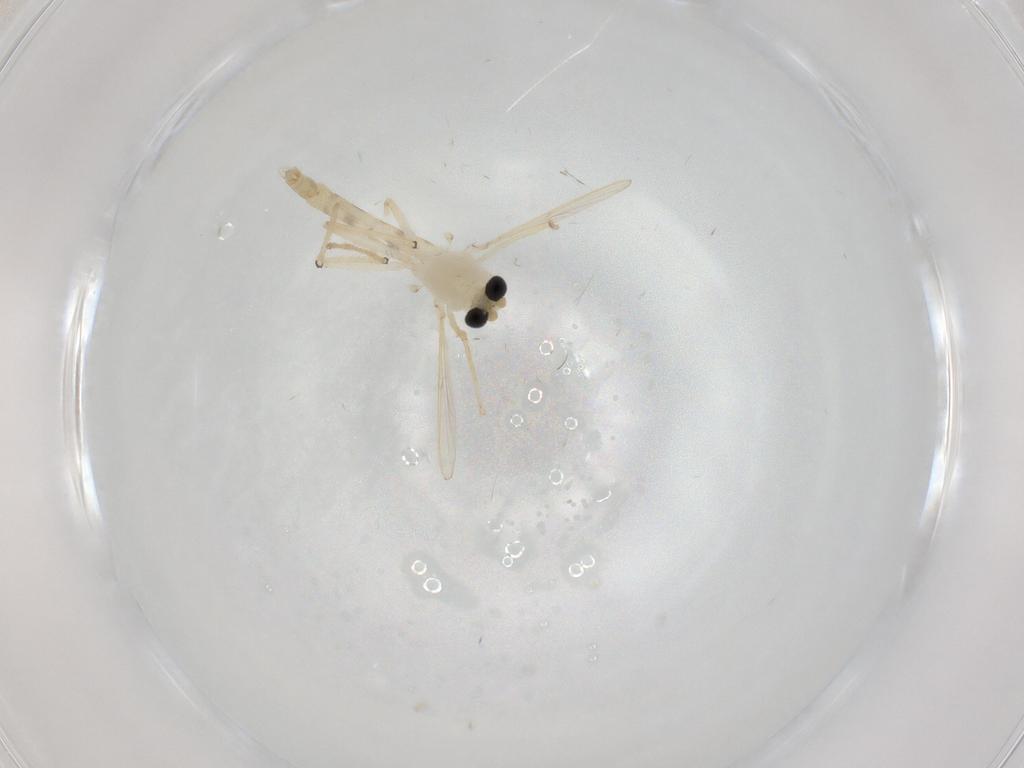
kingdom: Animalia
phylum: Arthropoda
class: Insecta
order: Diptera
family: Chironomidae
